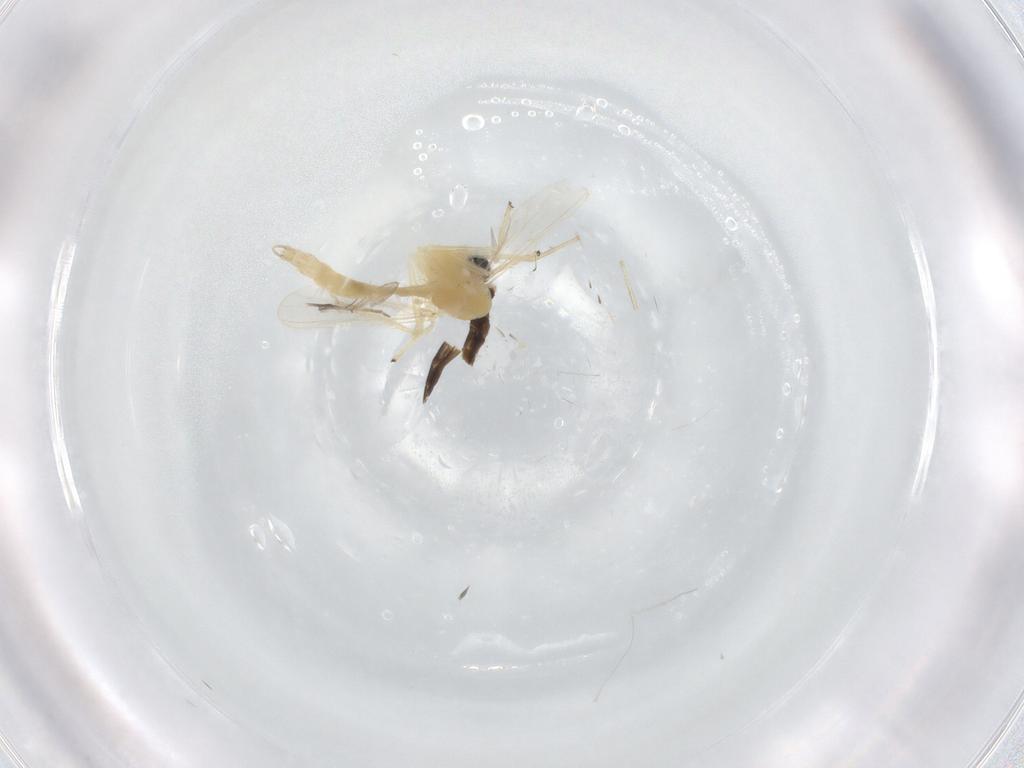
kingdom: Animalia
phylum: Arthropoda
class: Insecta
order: Diptera
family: Chironomidae
